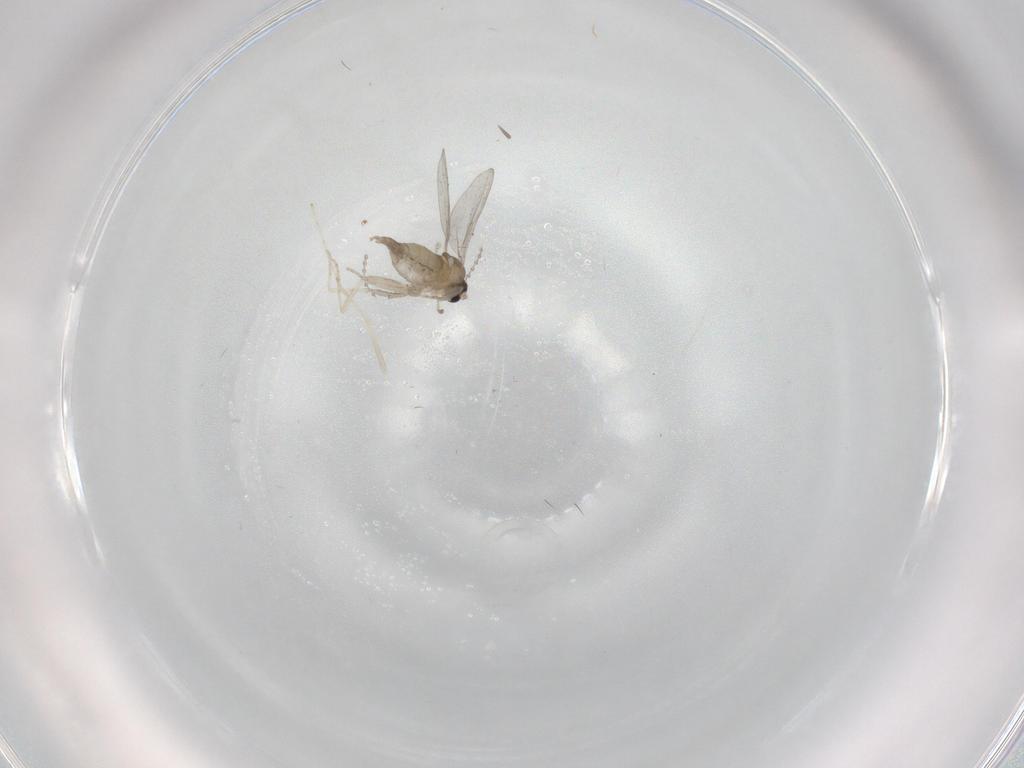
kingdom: Animalia
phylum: Arthropoda
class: Insecta
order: Diptera
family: Cecidomyiidae
